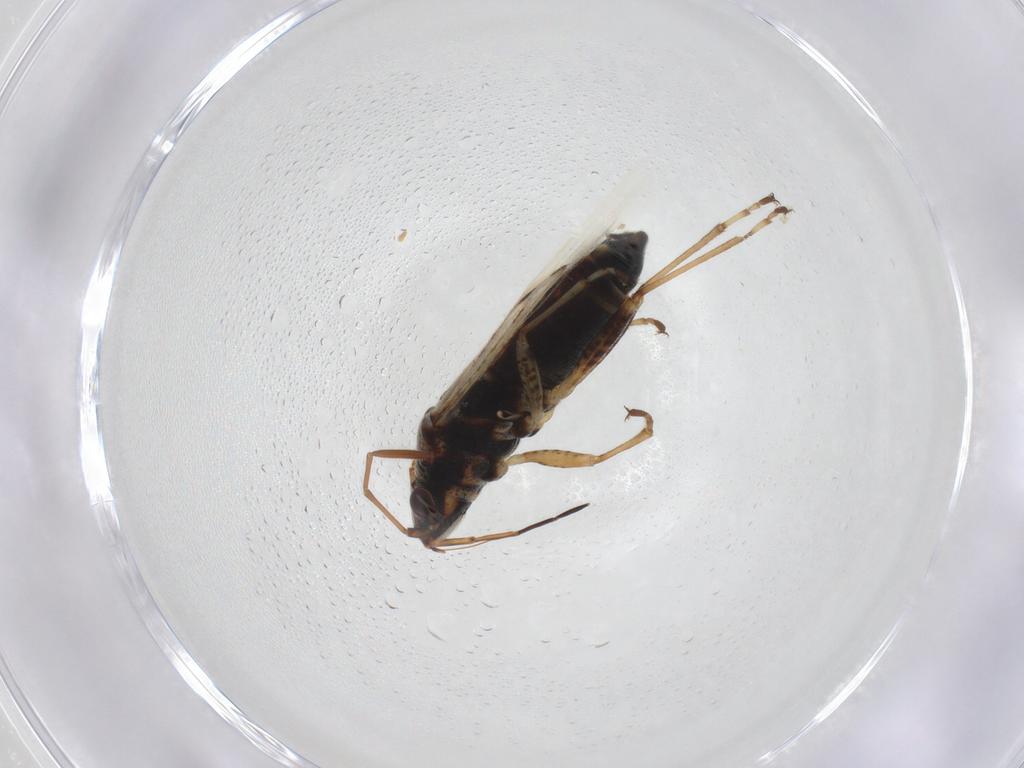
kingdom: Animalia
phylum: Arthropoda
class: Insecta
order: Hemiptera
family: Lygaeidae
